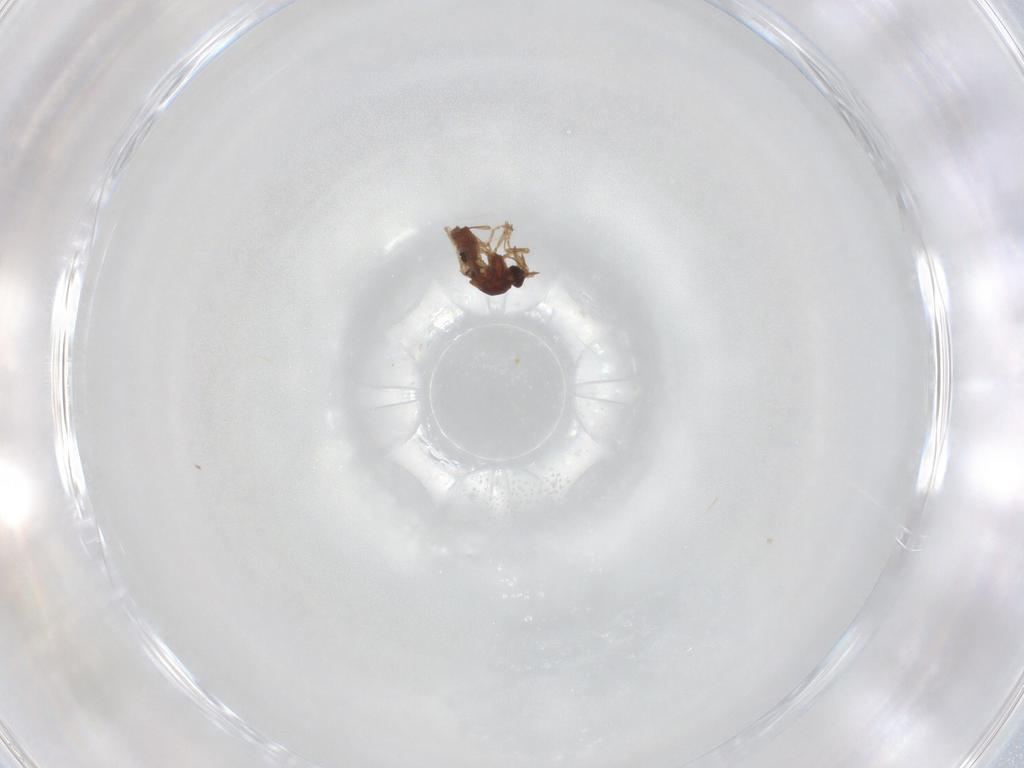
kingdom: Animalia
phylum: Arthropoda
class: Insecta
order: Diptera
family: Ceratopogonidae
